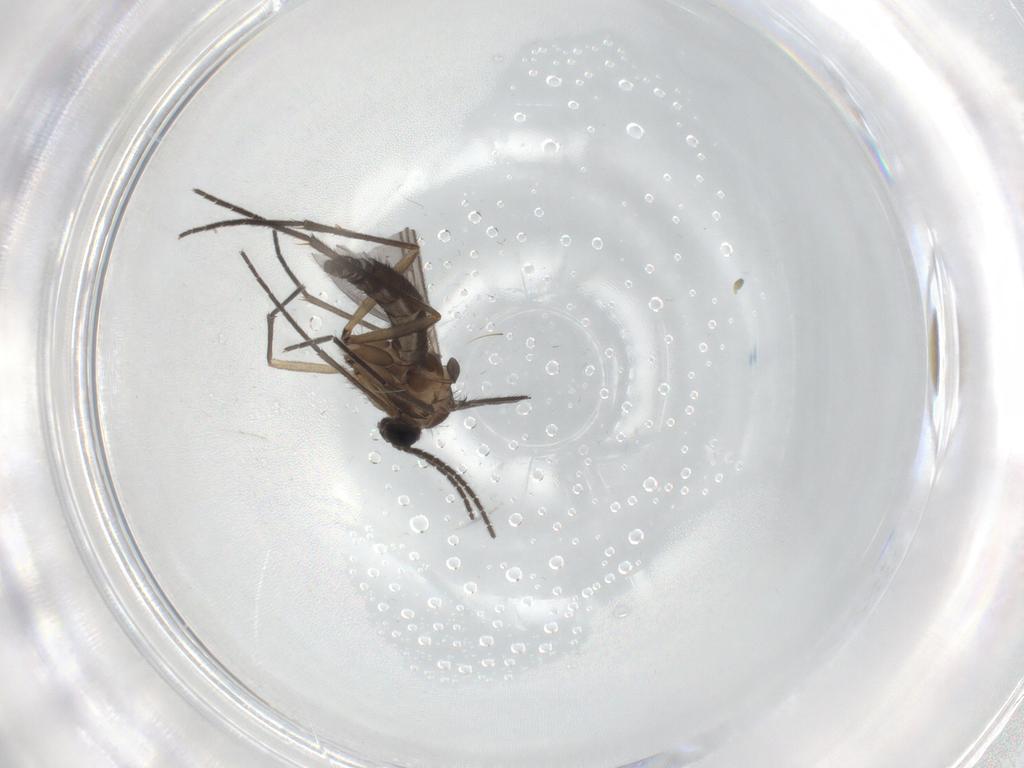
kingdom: Animalia
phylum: Arthropoda
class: Insecta
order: Diptera
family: Sciaridae
